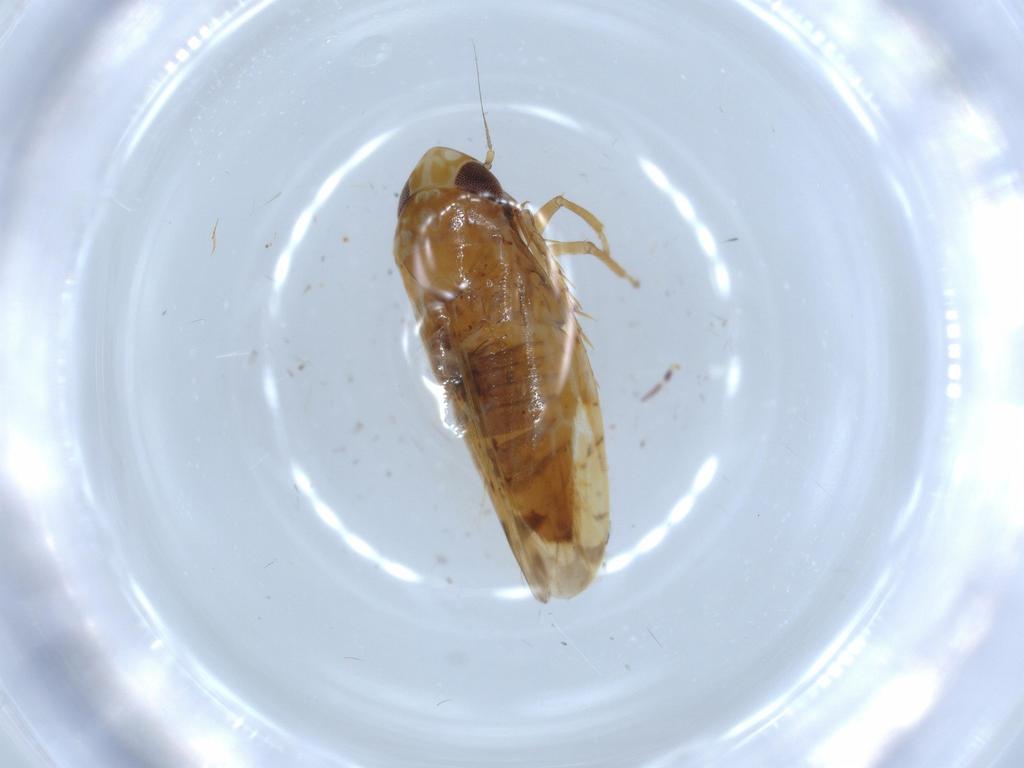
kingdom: Animalia
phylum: Arthropoda
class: Insecta
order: Hemiptera
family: Cicadellidae
